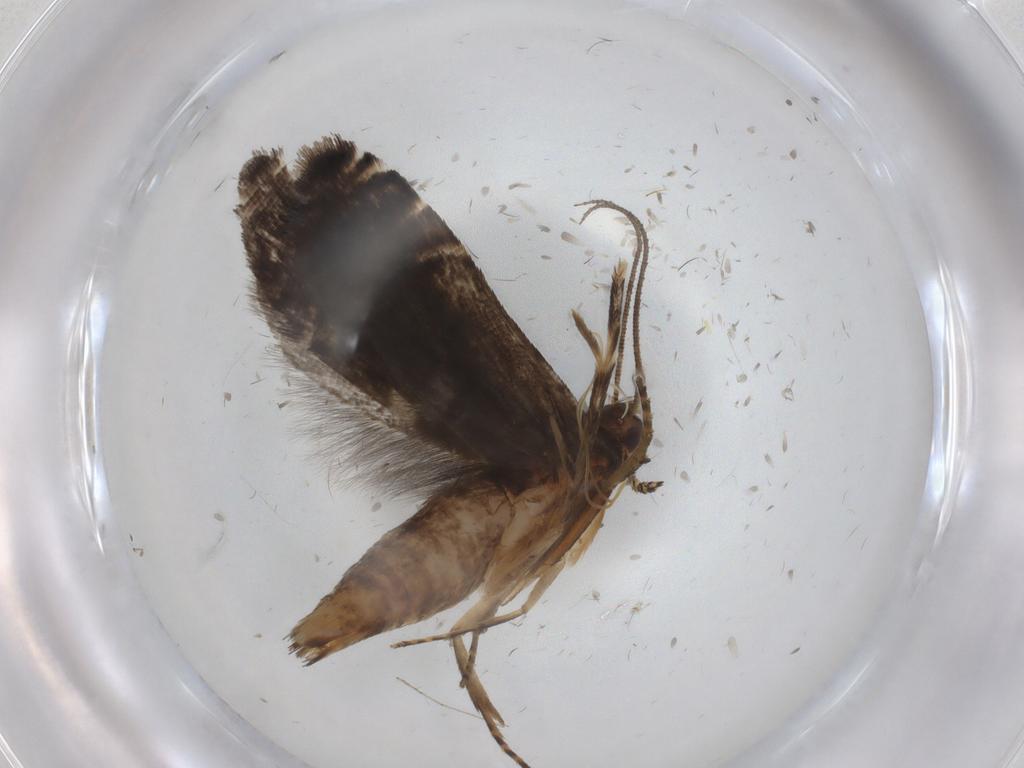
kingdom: Animalia
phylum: Arthropoda
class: Insecta
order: Lepidoptera
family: Glyphipterigidae
